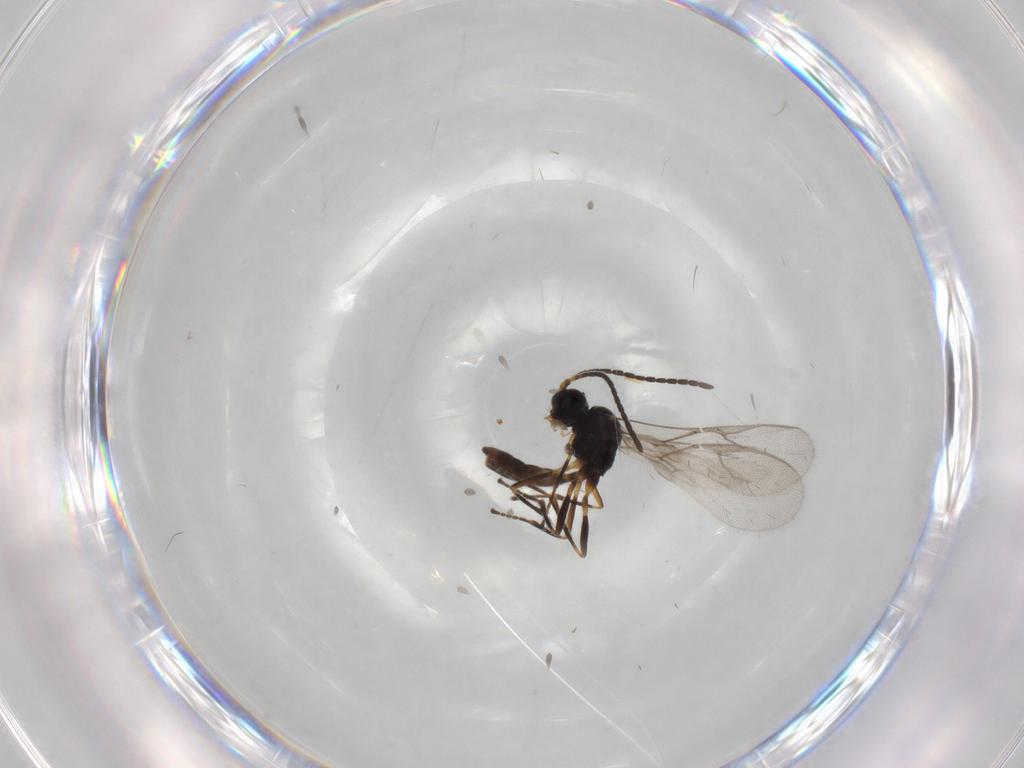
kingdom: Animalia
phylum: Arthropoda
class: Insecta
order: Hymenoptera
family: Braconidae
